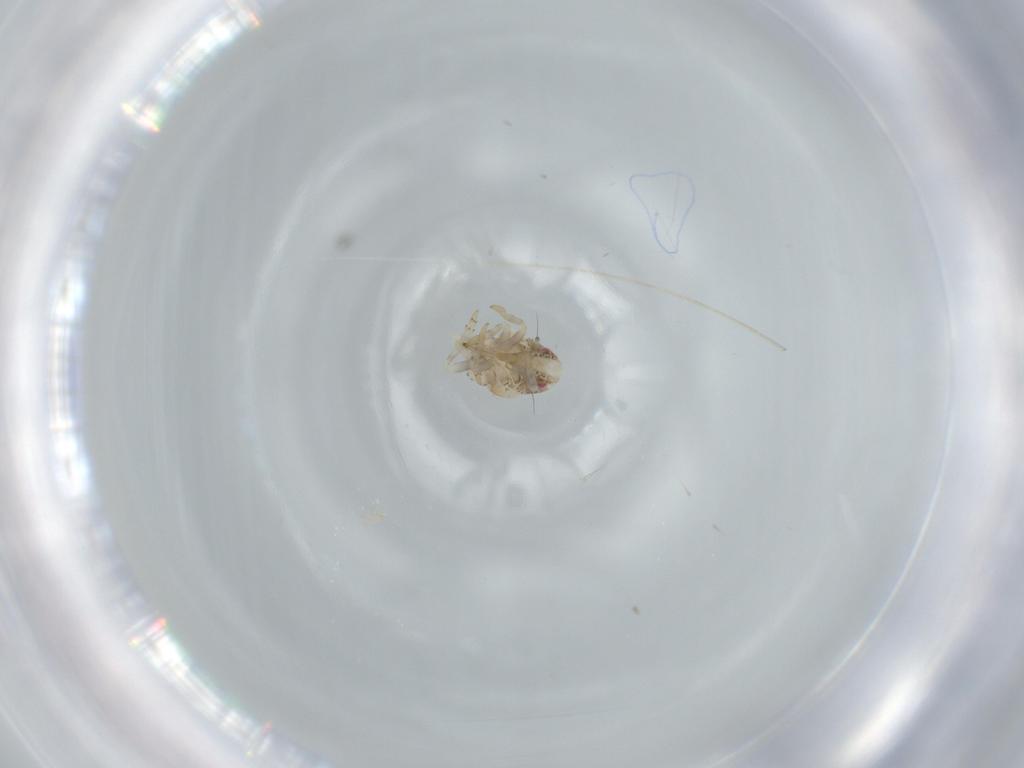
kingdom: Animalia
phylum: Arthropoda
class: Insecta
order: Hemiptera
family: Acanaloniidae
